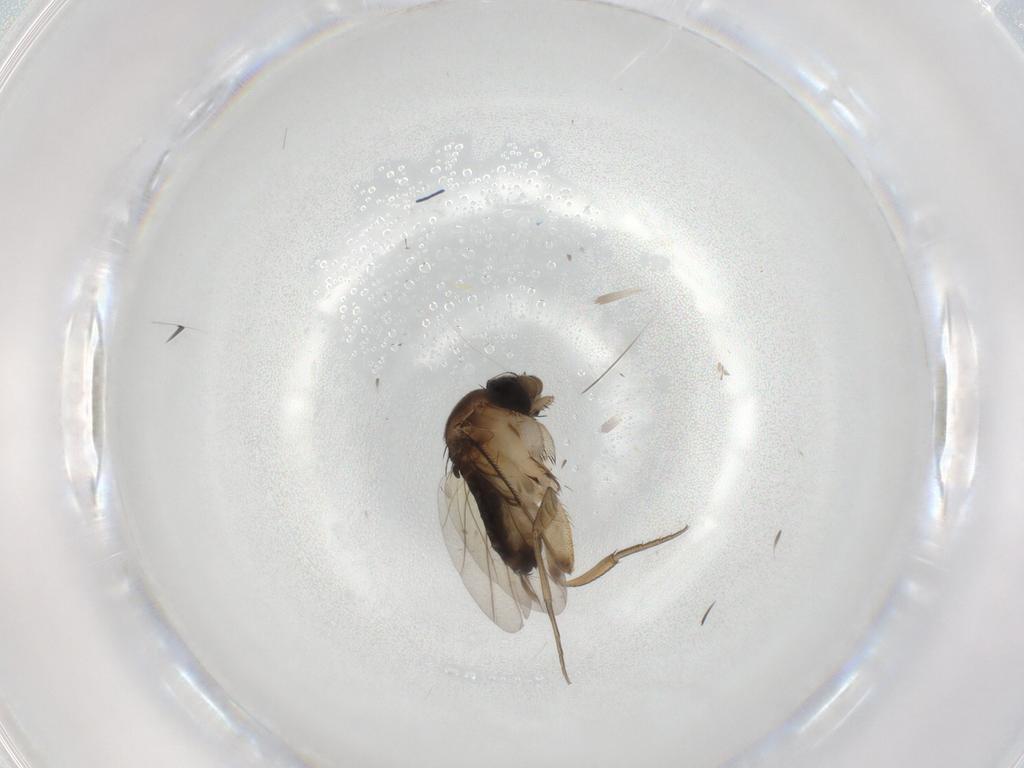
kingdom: Animalia
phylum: Arthropoda
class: Insecta
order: Diptera
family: Phoridae
